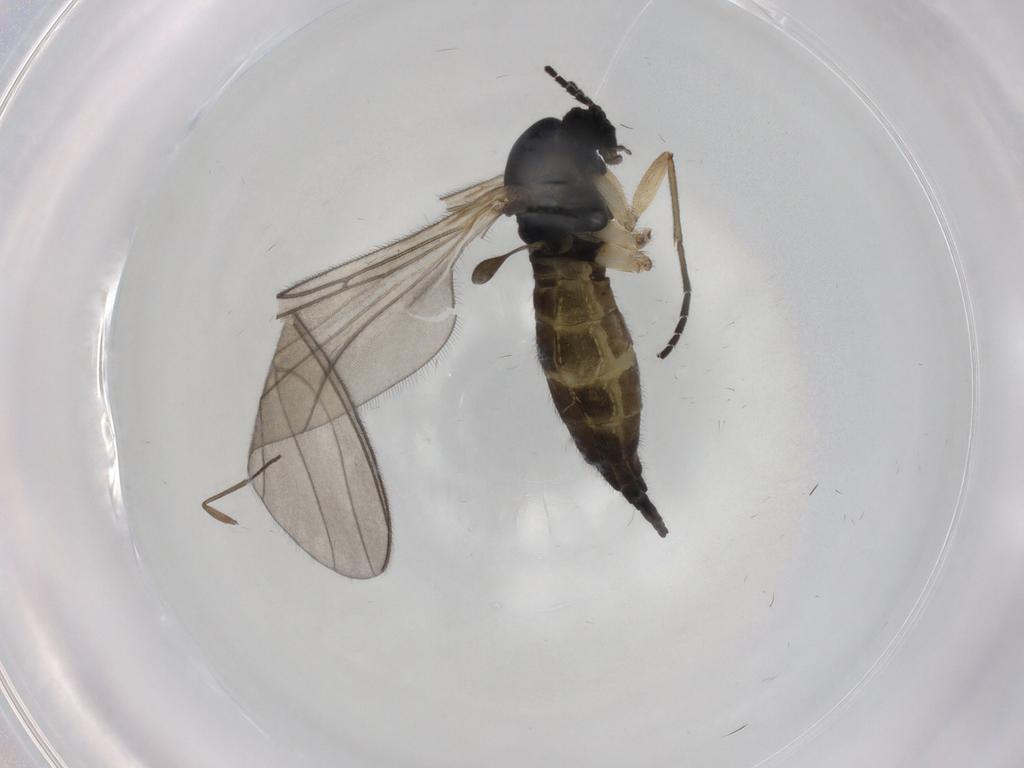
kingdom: Animalia
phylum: Arthropoda
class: Insecta
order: Diptera
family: Sciaridae
